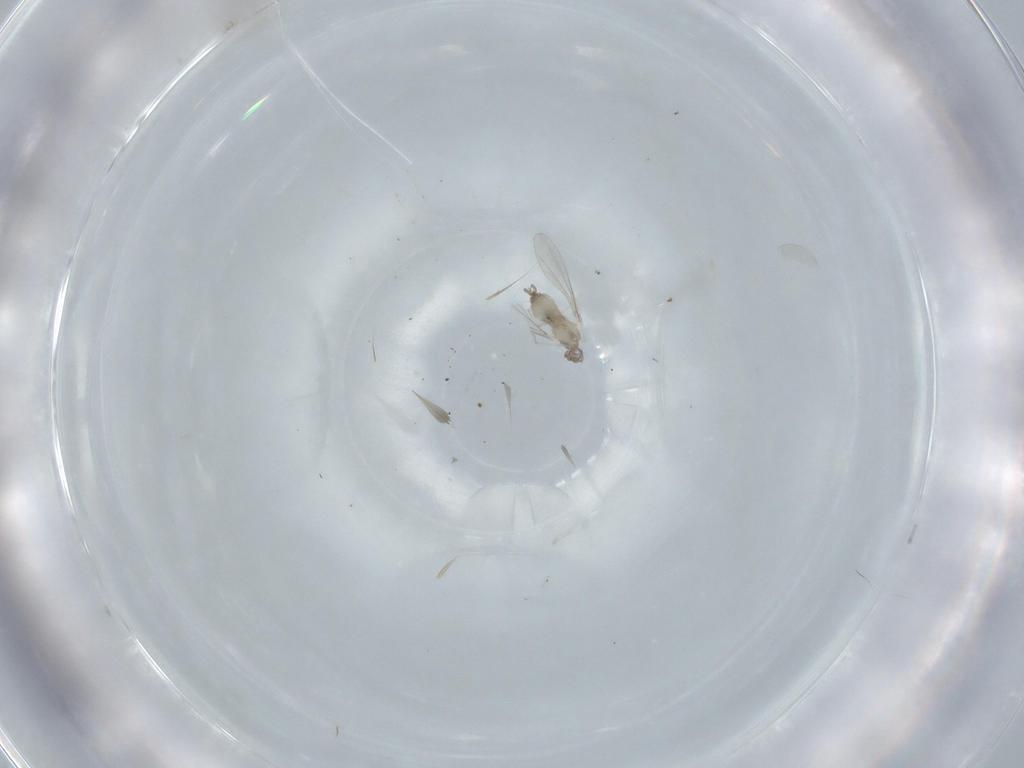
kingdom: Animalia
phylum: Arthropoda
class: Insecta
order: Diptera
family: Cecidomyiidae
